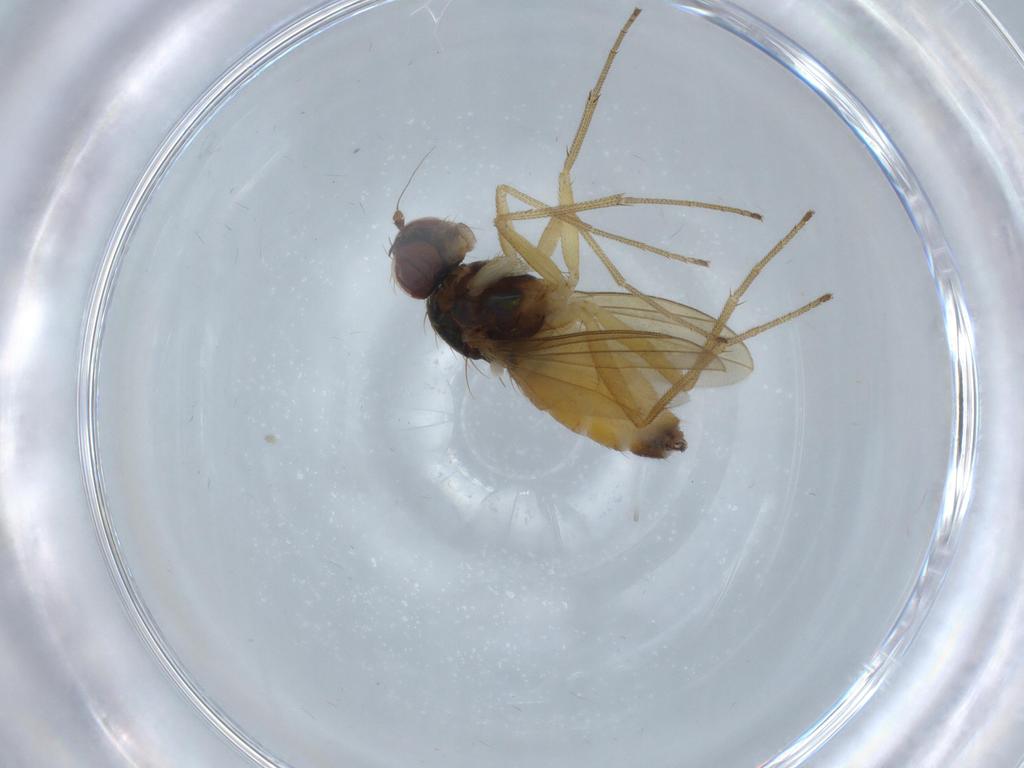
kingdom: Animalia
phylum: Arthropoda
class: Insecta
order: Diptera
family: Dolichopodidae
